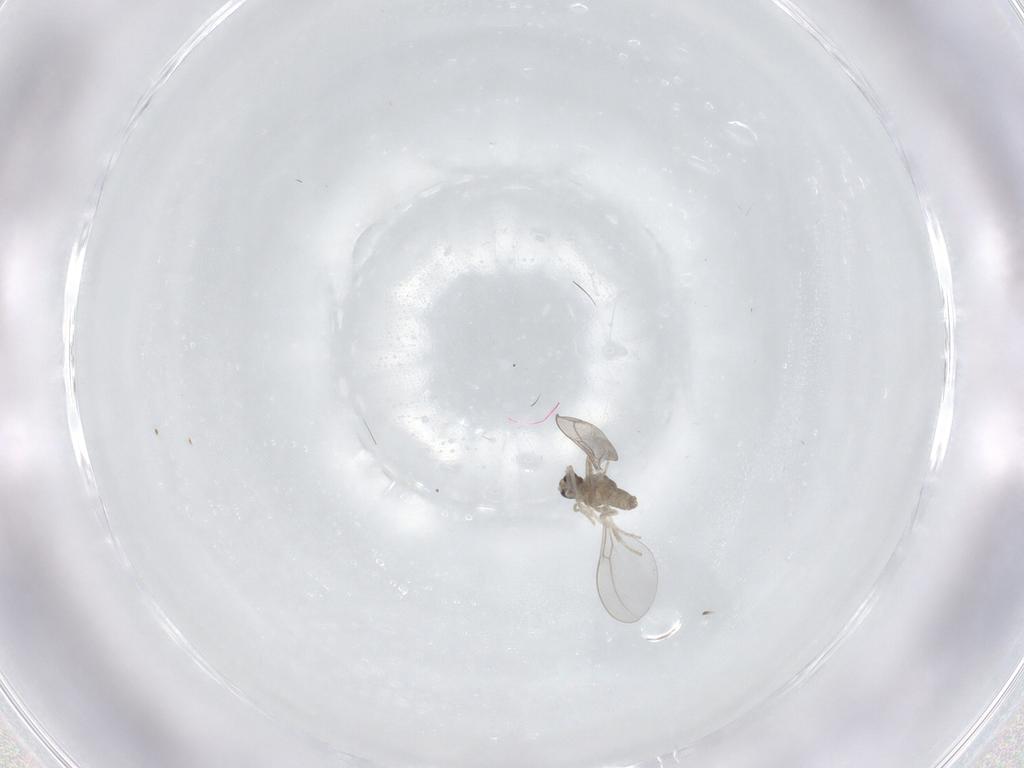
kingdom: Animalia
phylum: Arthropoda
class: Insecta
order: Diptera
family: Cecidomyiidae
